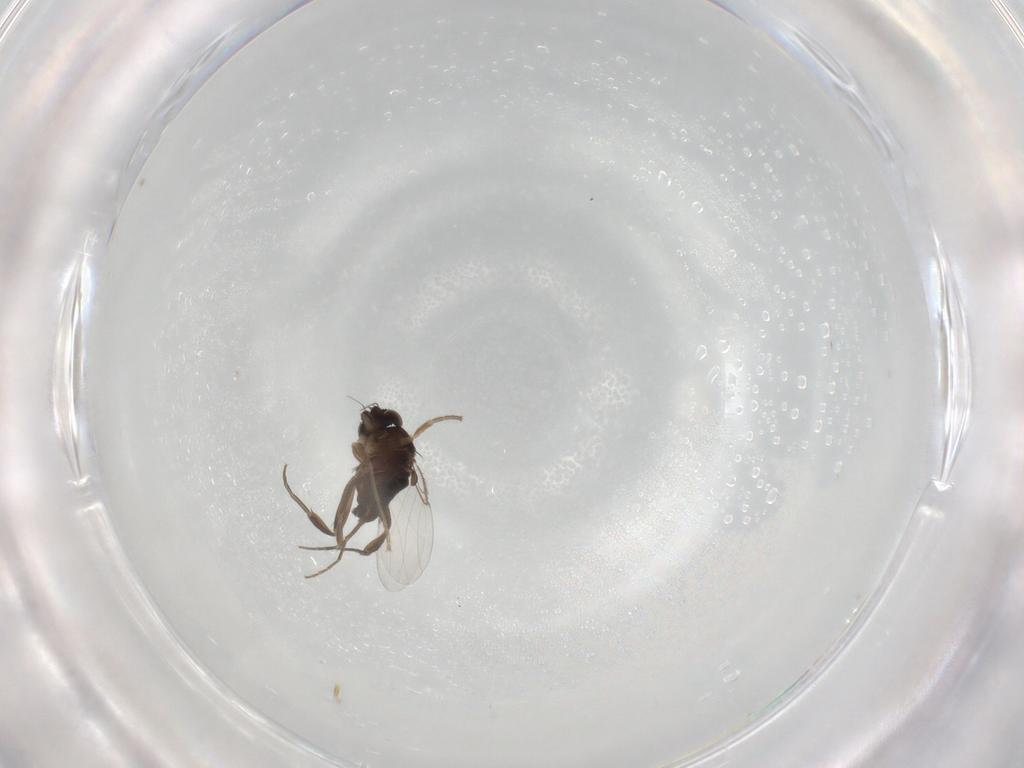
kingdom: Animalia
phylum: Arthropoda
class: Insecta
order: Diptera
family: Phoridae
